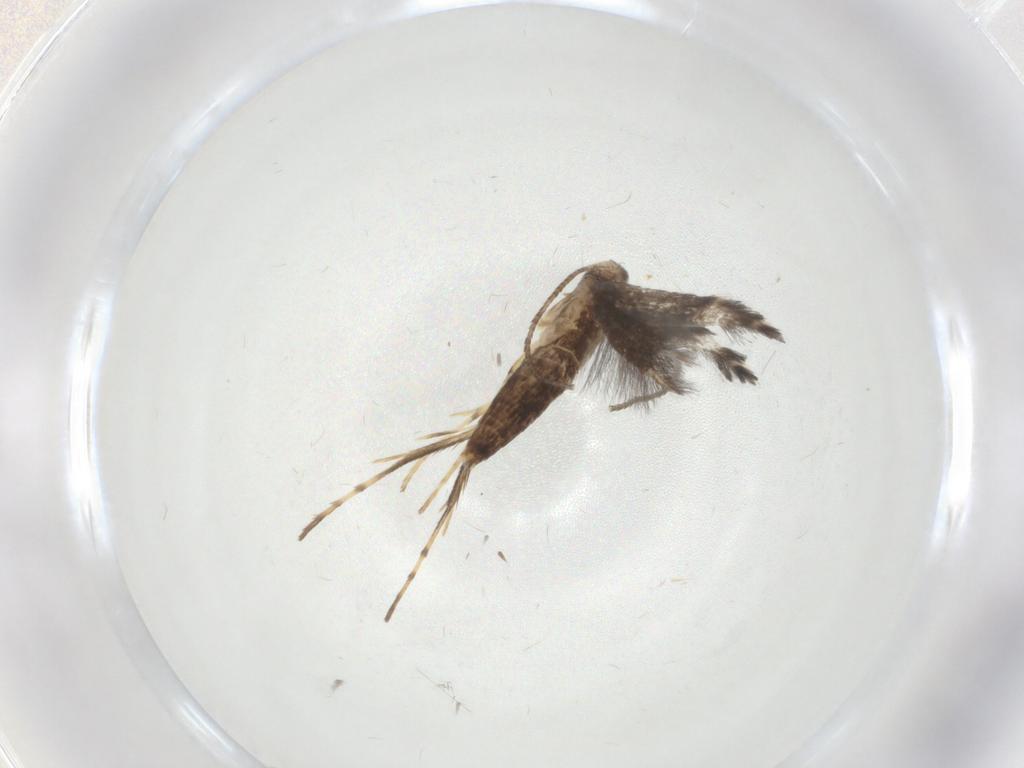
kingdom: Animalia
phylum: Arthropoda
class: Insecta
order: Lepidoptera
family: Gracillariidae
